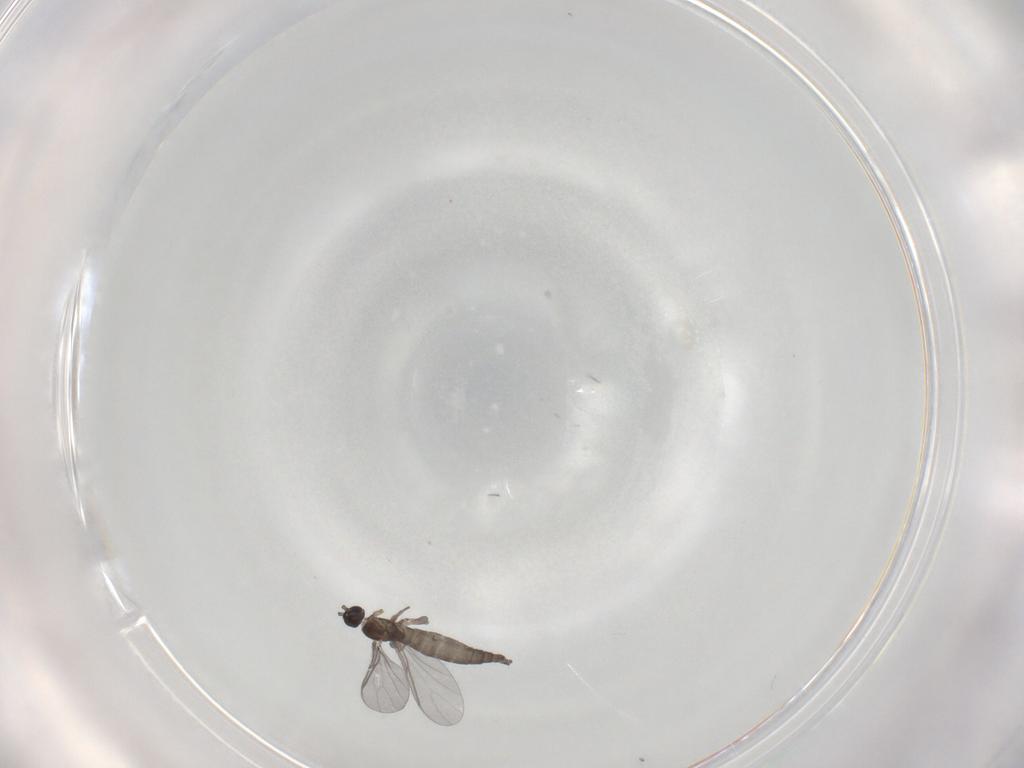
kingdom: Animalia
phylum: Arthropoda
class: Insecta
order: Diptera
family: Sciaridae
